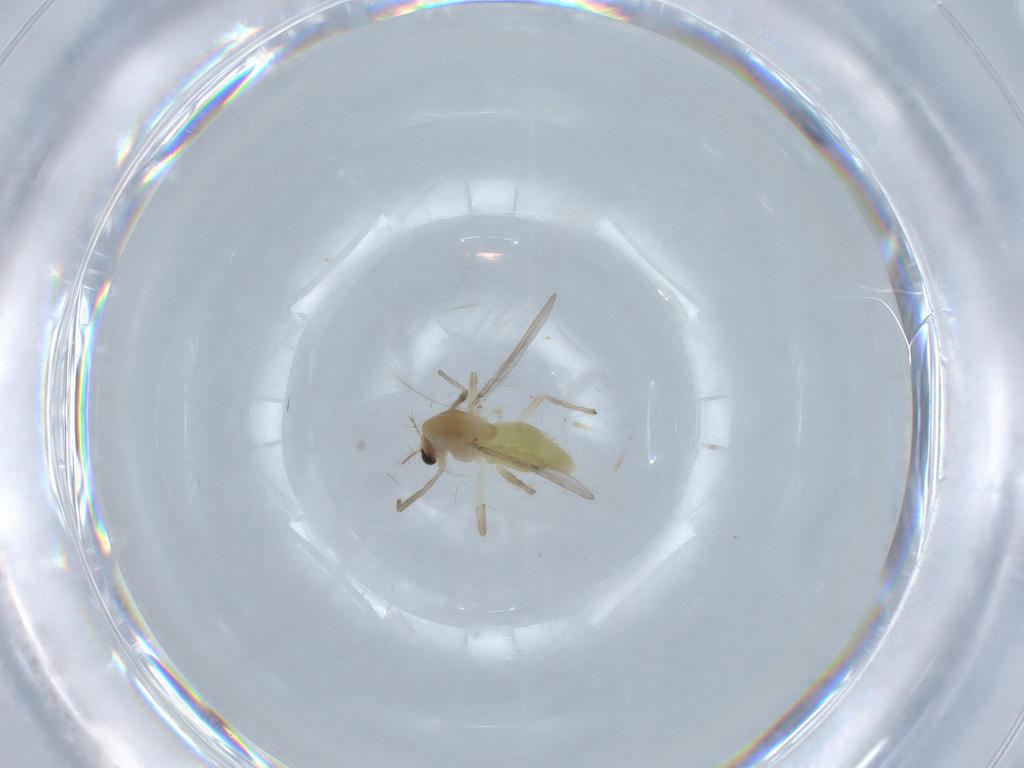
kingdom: Animalia
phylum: Arthropoda
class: Insecta
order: Diptera
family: Chironomidae
